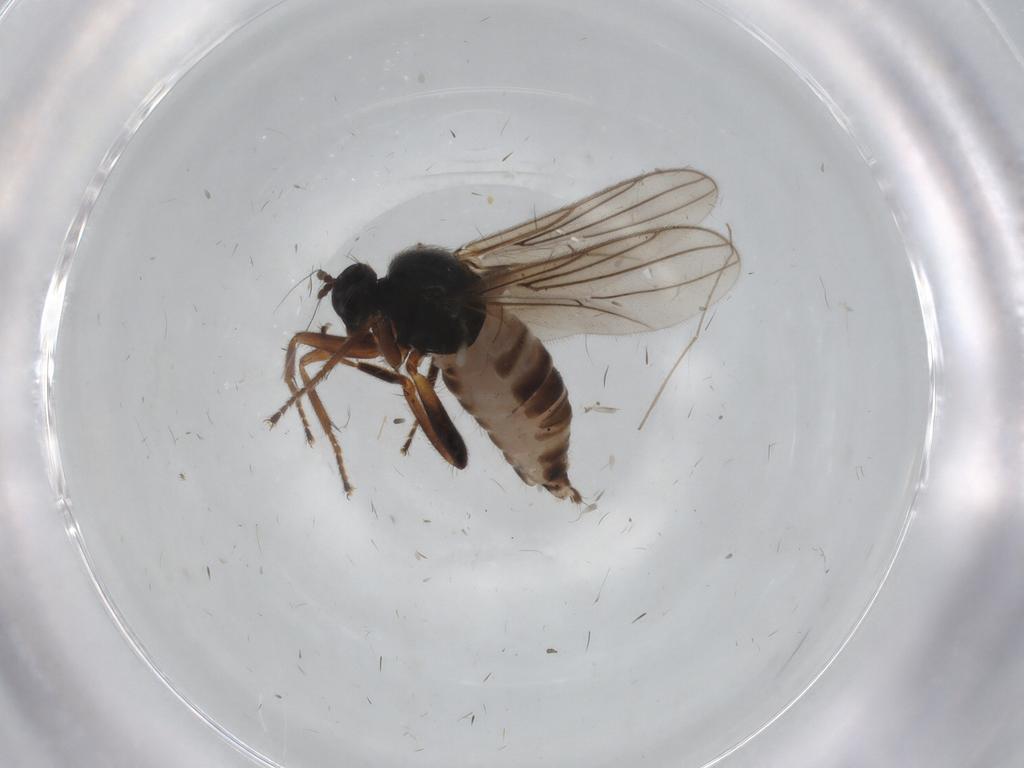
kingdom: Animalia
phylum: Arthropoda
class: Insecta
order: Diptera
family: Hybotidae
